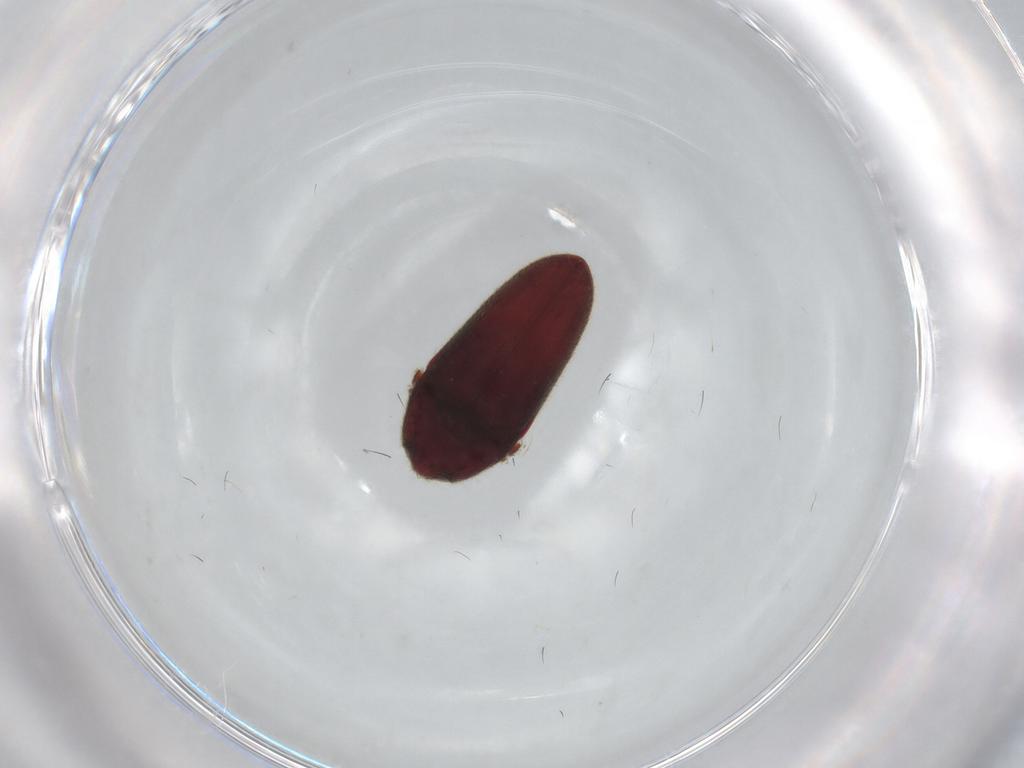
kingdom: Animalia
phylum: Arthropoda
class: Insecta
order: Coleoptera
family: Throscidae
